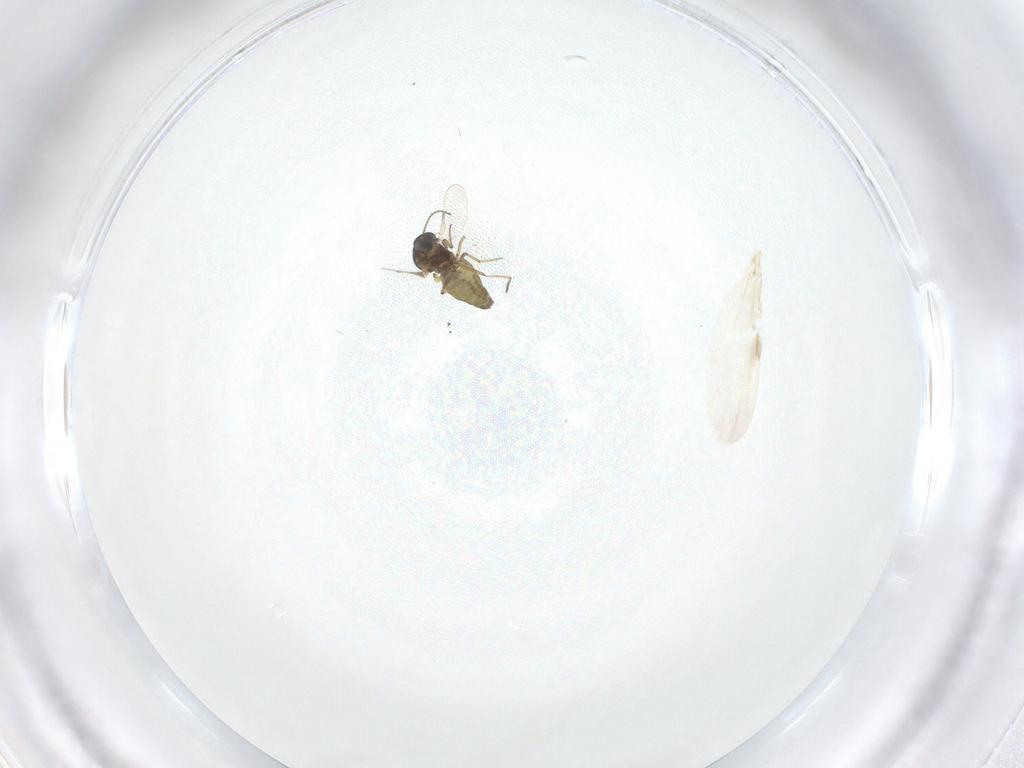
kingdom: Animalia
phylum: Arthropoda
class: Insecta
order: Diptera
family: Ceratopogonidae
